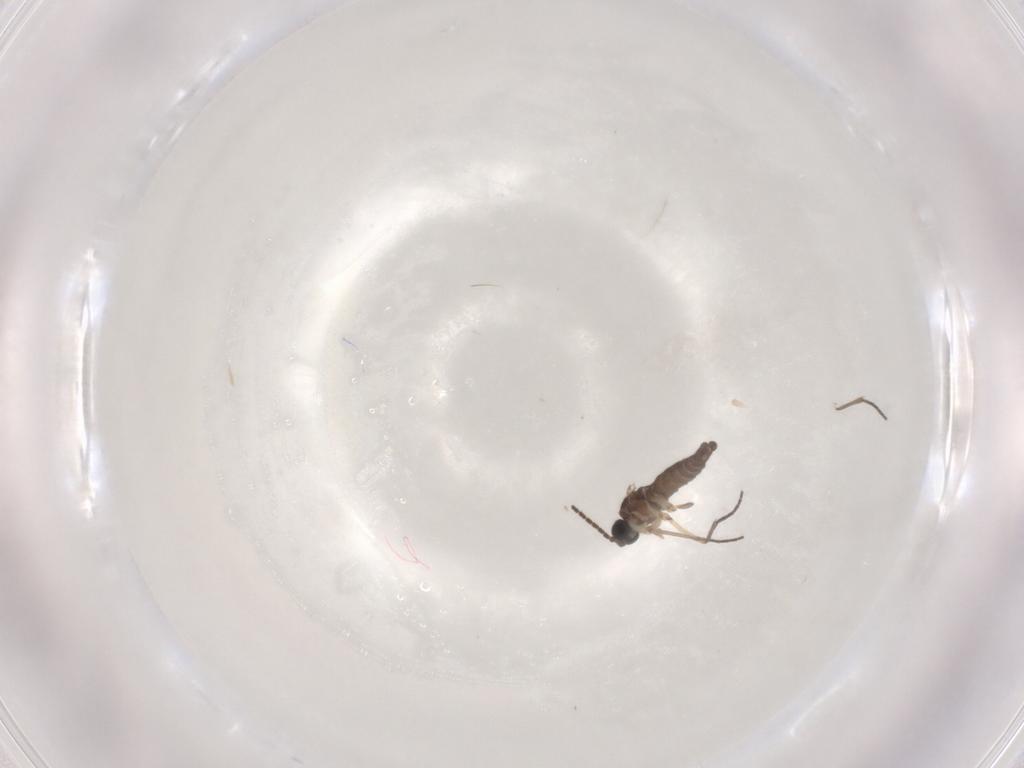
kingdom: Animalia
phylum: Arthropoda
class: Insecta
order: Diptera
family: Sciaridae
